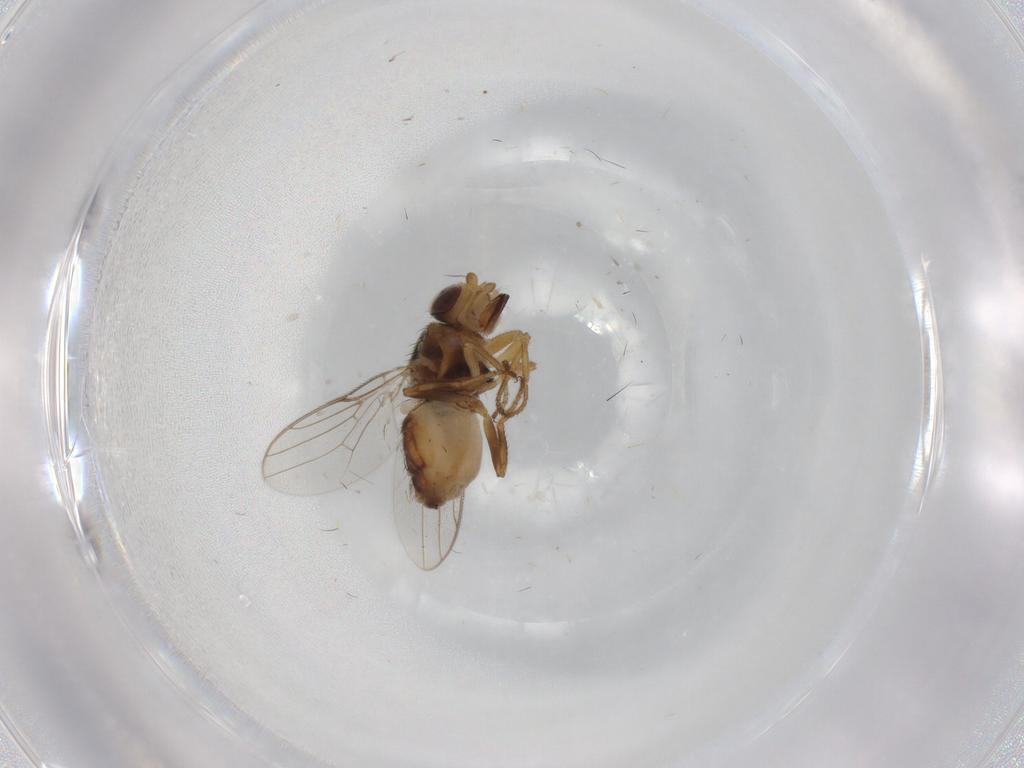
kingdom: Animalia
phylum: Arthropoda
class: Insecta
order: Diptera
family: Chloropidae
